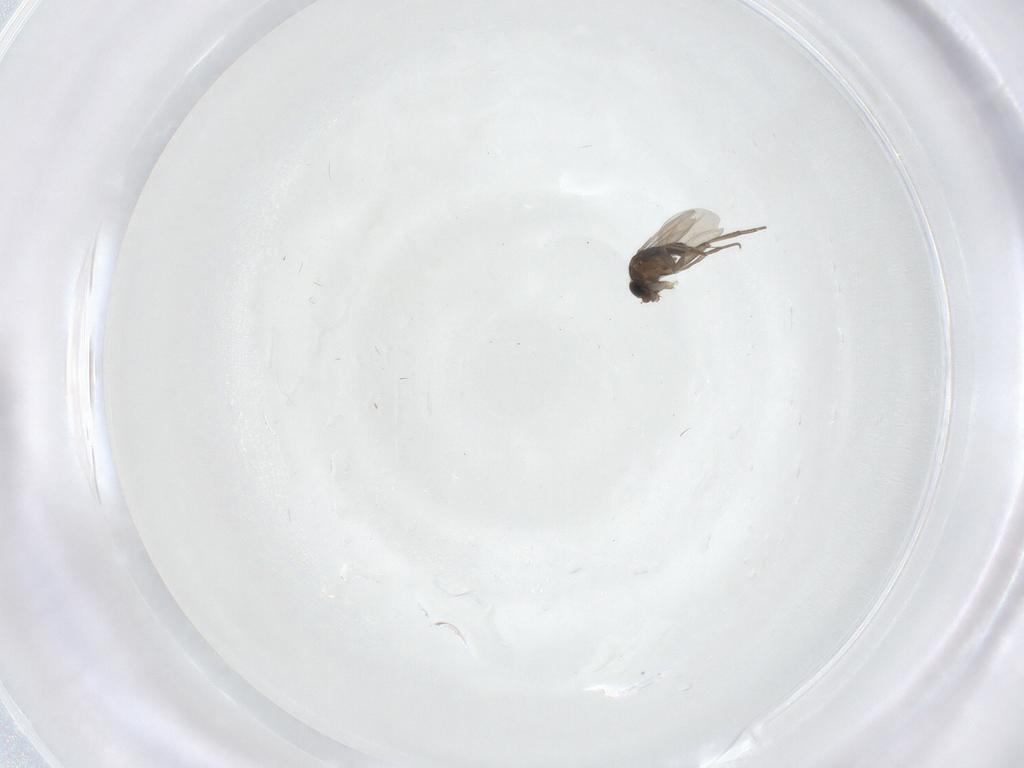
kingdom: Animalia
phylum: Arthropoda
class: Insecta
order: Diptera
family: Phoridae
